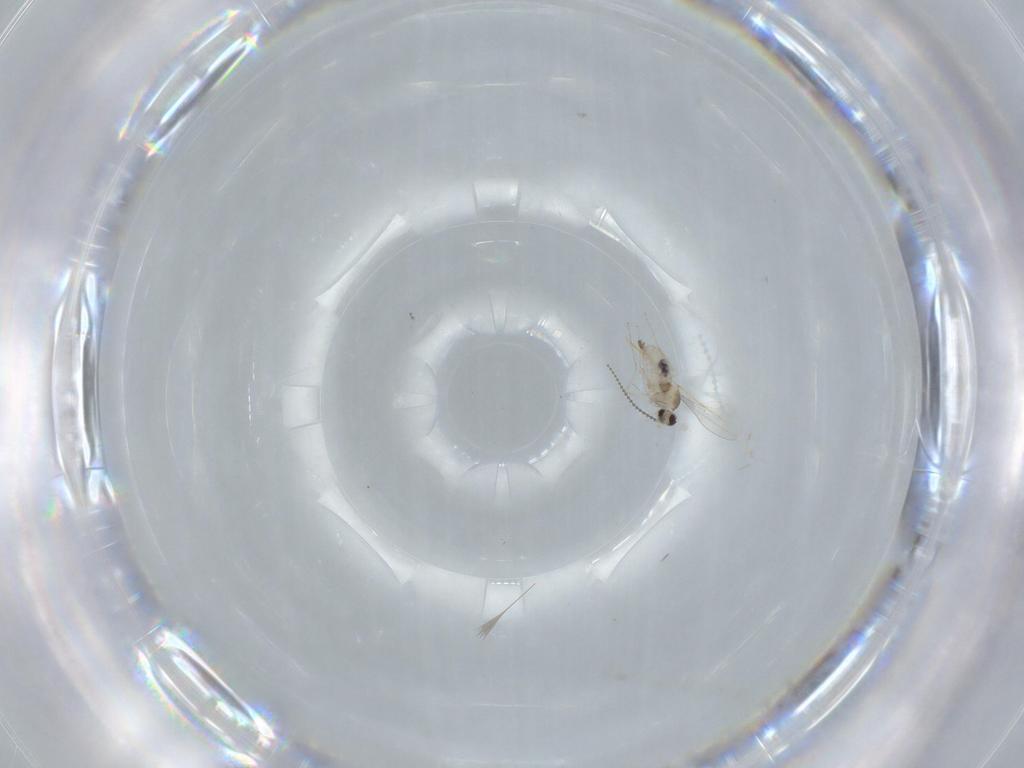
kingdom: Animalia
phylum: Arthropoda
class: Insecta
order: Diptera
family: Cecidomyiidae
